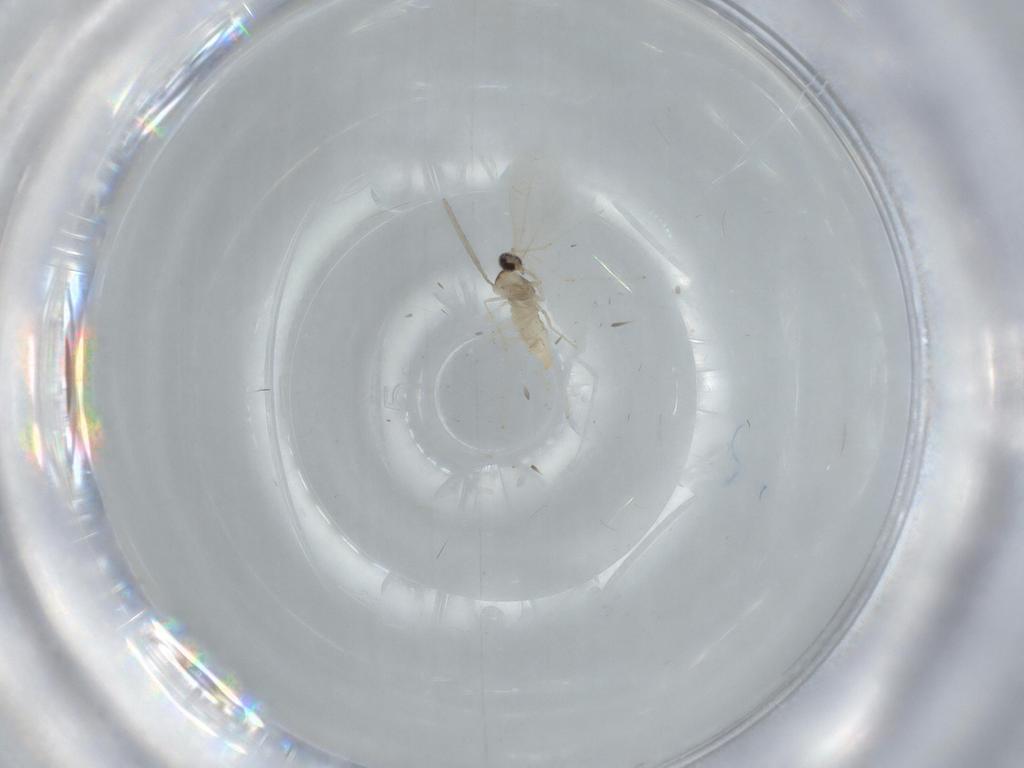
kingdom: Animalia
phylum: Arthropoda
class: Insecta
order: Diptera
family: Cecidomyiidae
